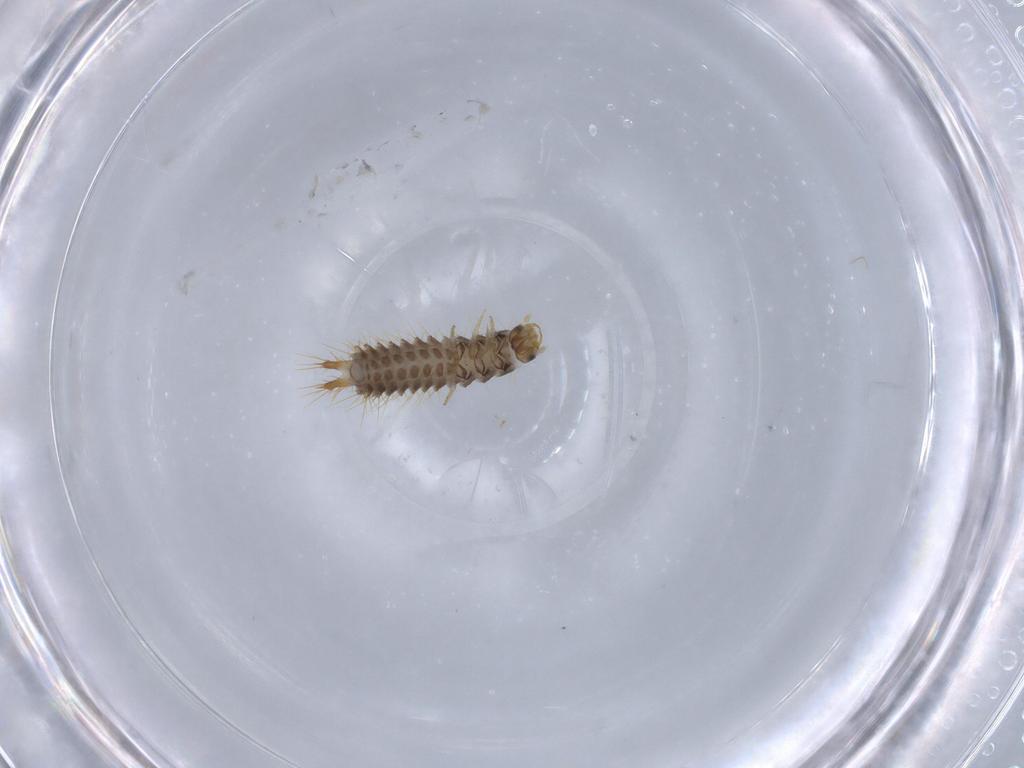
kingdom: Animalia
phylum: Arthropoda
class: Insecta
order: Coleoptera
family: Drilidae
